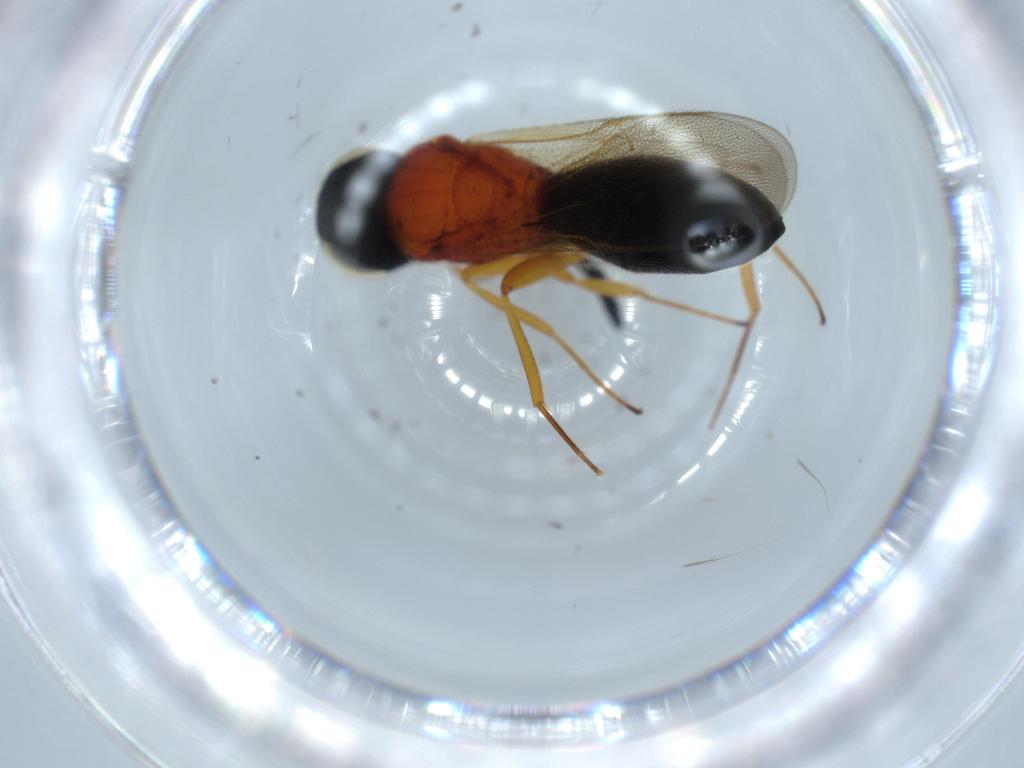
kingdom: Animalia
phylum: Arthropoda
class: Insecta
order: Hymenoptera
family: Scelionidae
